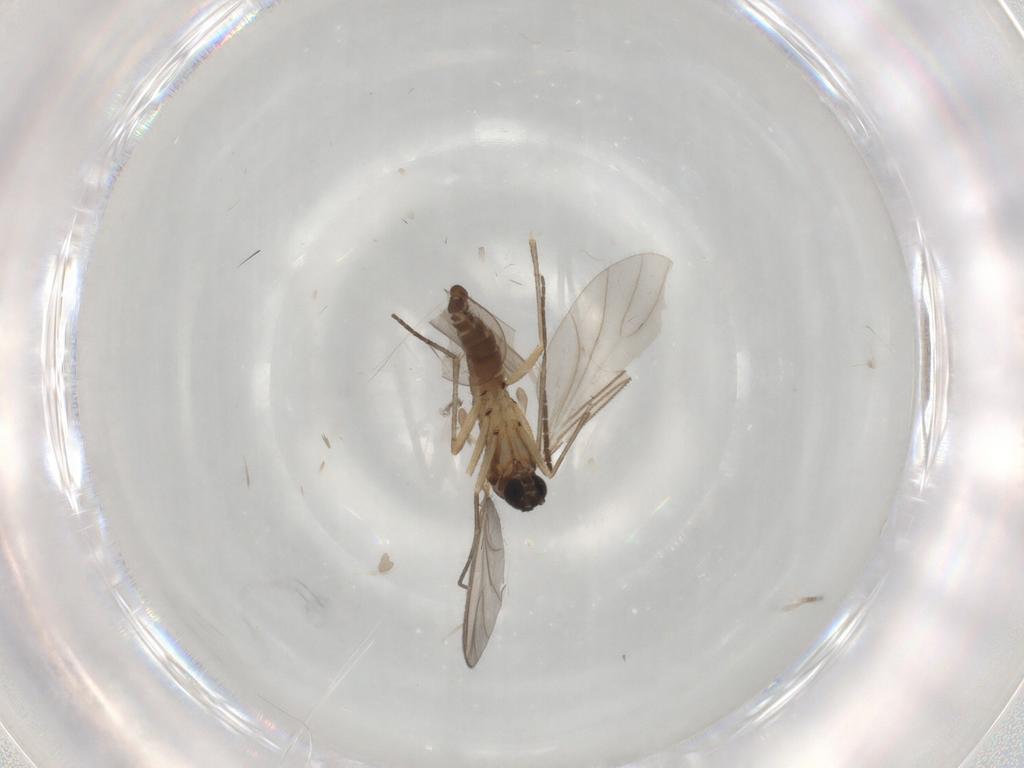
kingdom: Animalia
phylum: Arthropoda
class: Insecta
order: Diptera
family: Sciaridae
